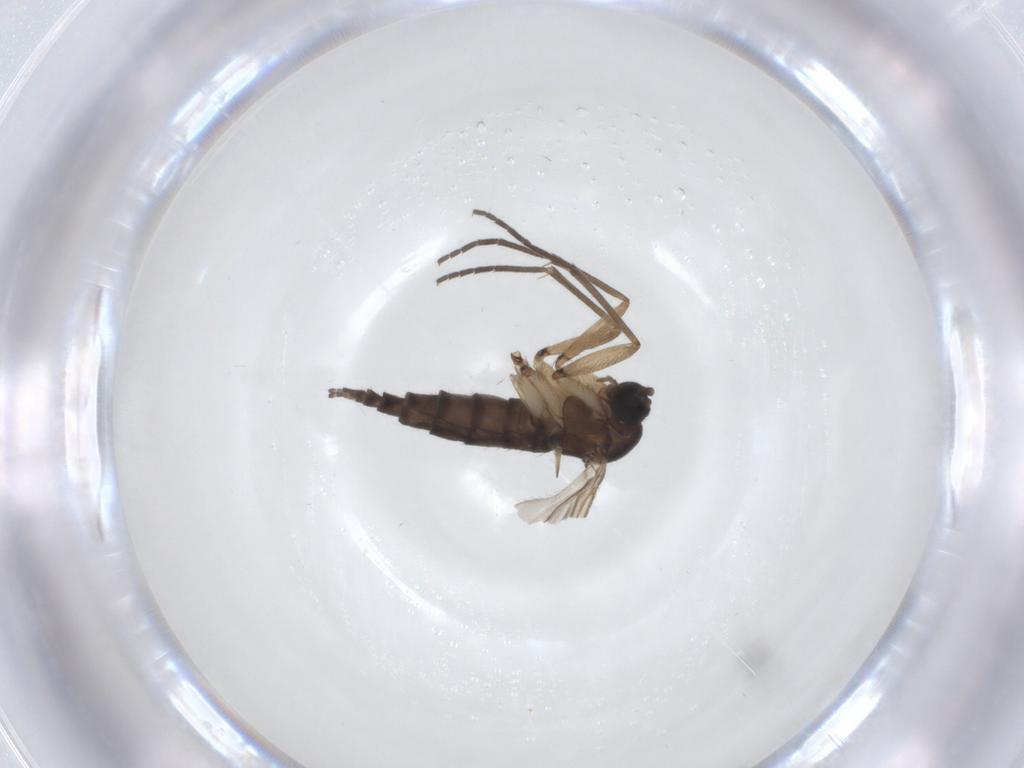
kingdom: Animalia
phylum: Arthropoda
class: Insecta
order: Diptera
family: Sciaridae
